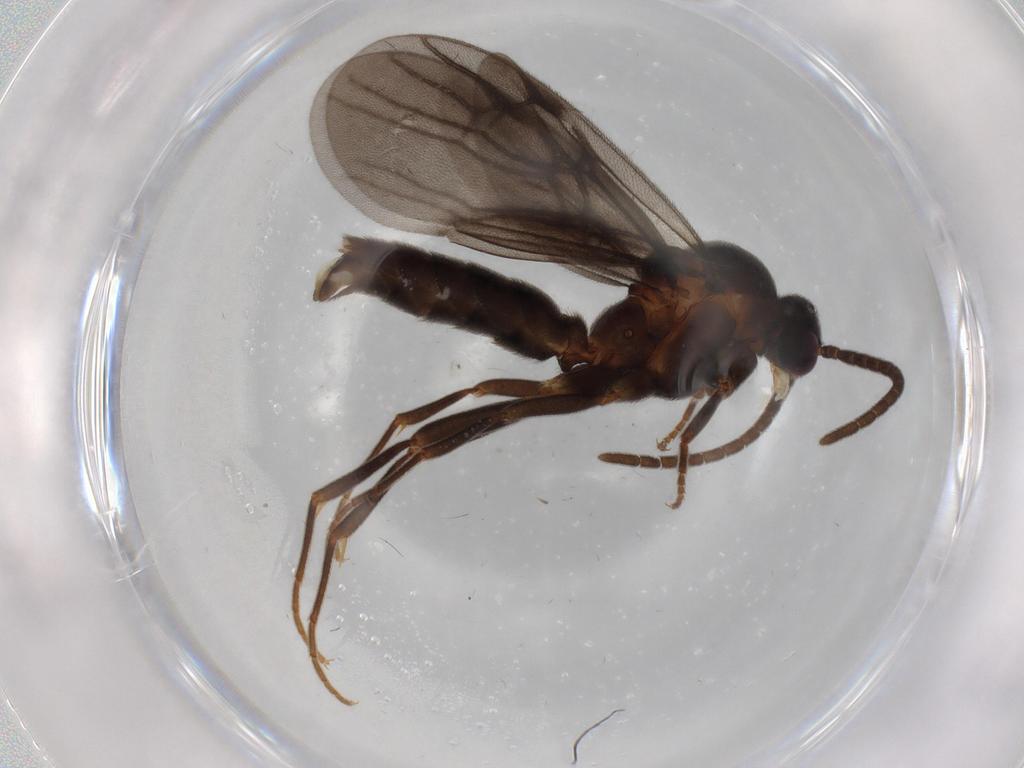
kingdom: Animalia
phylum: Arthropoda
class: Insecta
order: Hymenoptera
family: Formicidae
